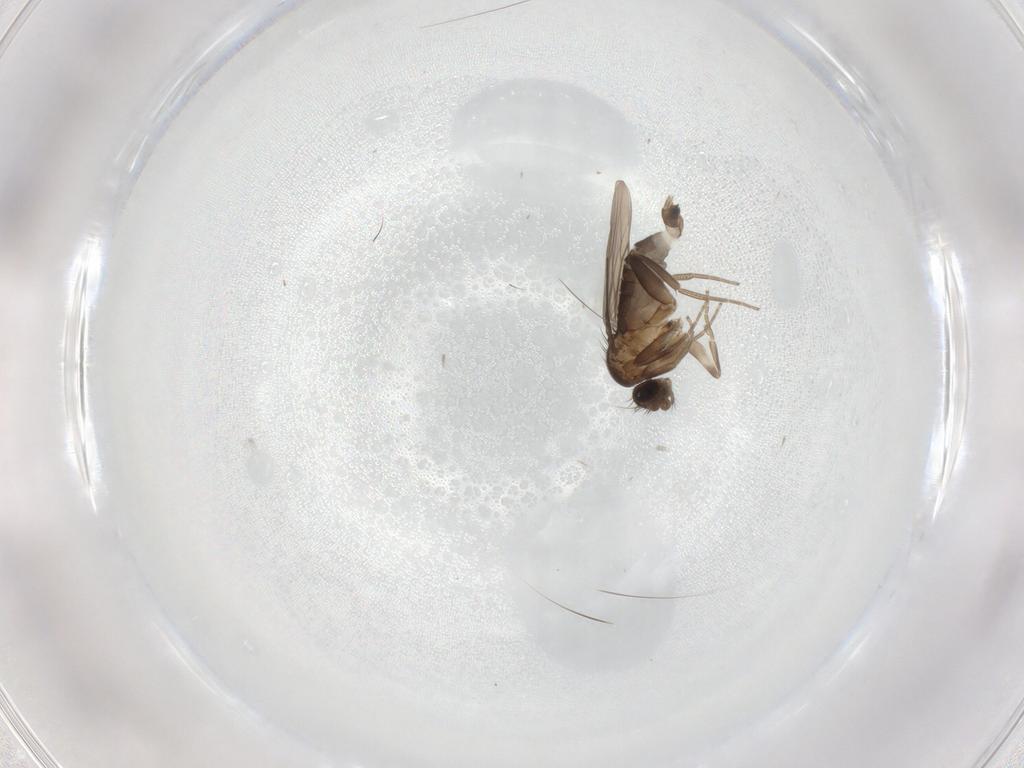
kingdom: Animalia
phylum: Arthropoda
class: Insecta
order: Diptera
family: Phoridae
